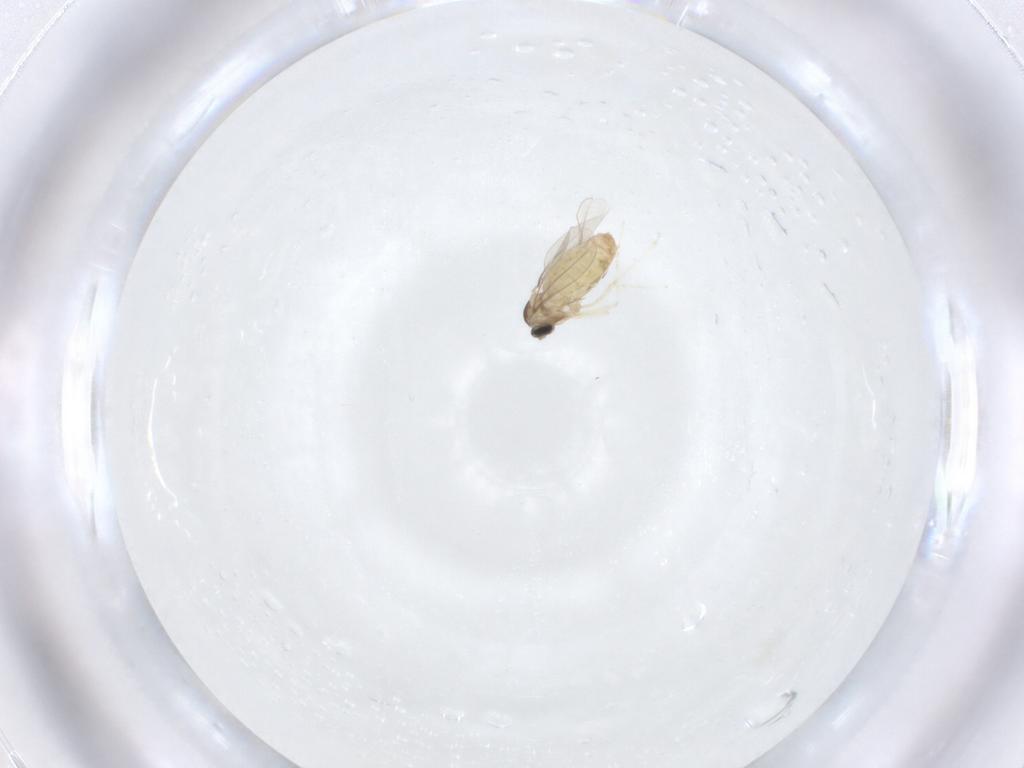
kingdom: Animalia
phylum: Arthropoda
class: Insecta
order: Diptera
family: Cecidomyiidae
